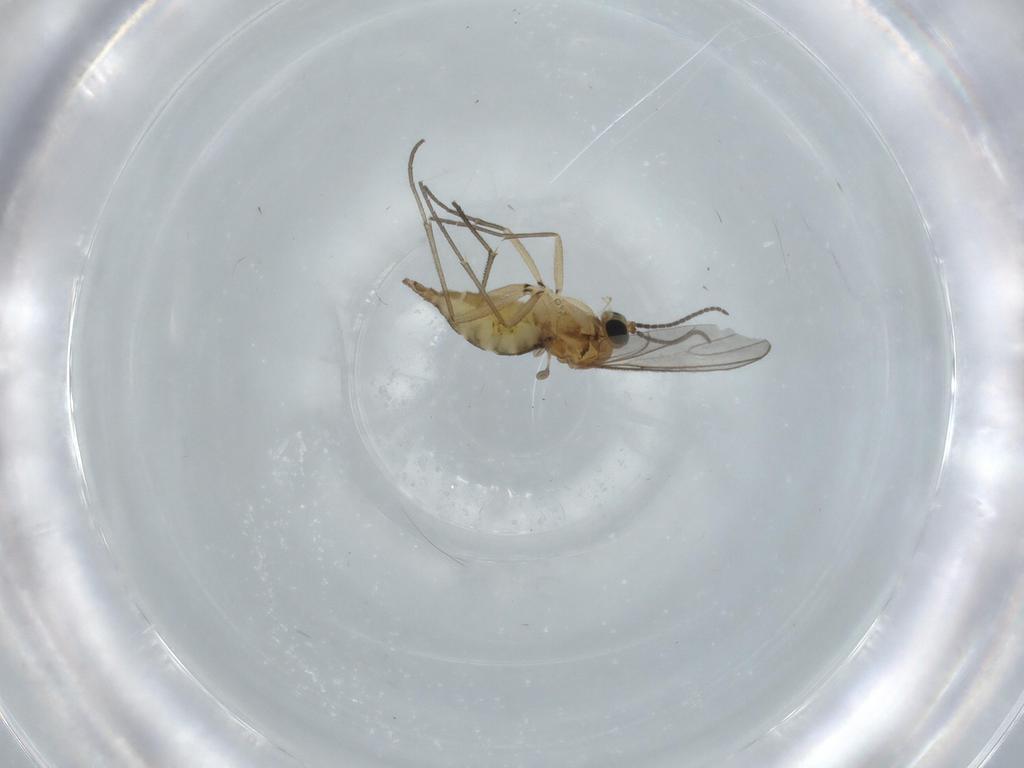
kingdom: Animalia
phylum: Arthropoda
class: Insecta
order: Diptera
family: Sciaridae
